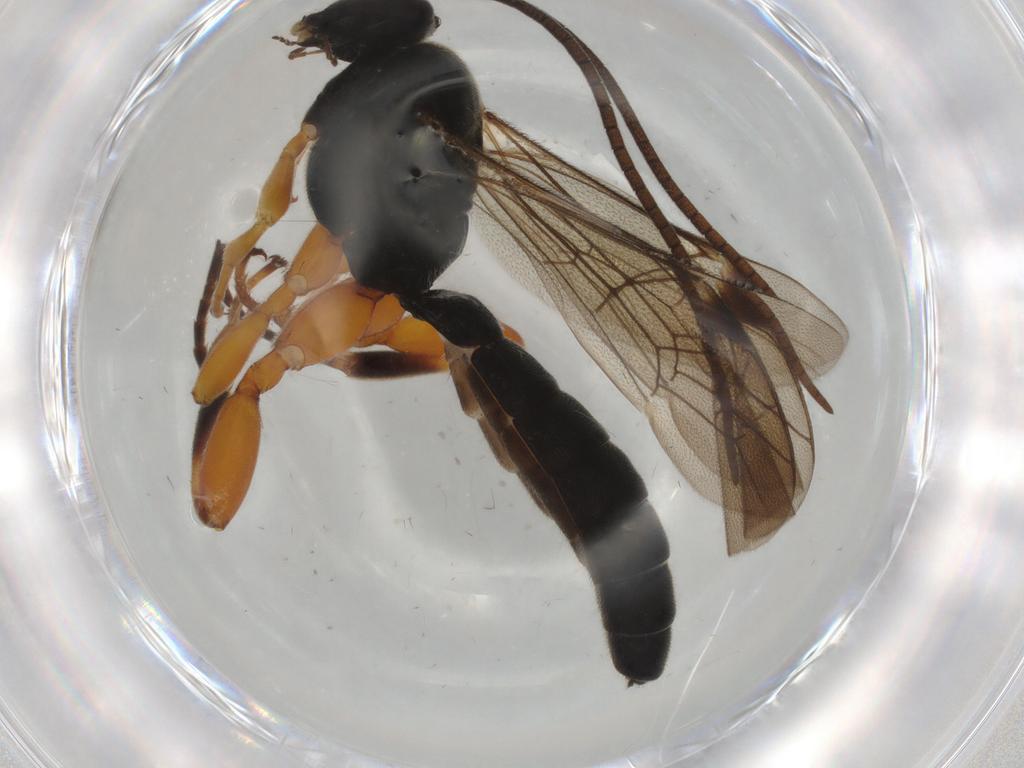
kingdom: Animalia
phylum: Arthropoda
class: Insecta
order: Hymenoptera
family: Ichneumonidae
